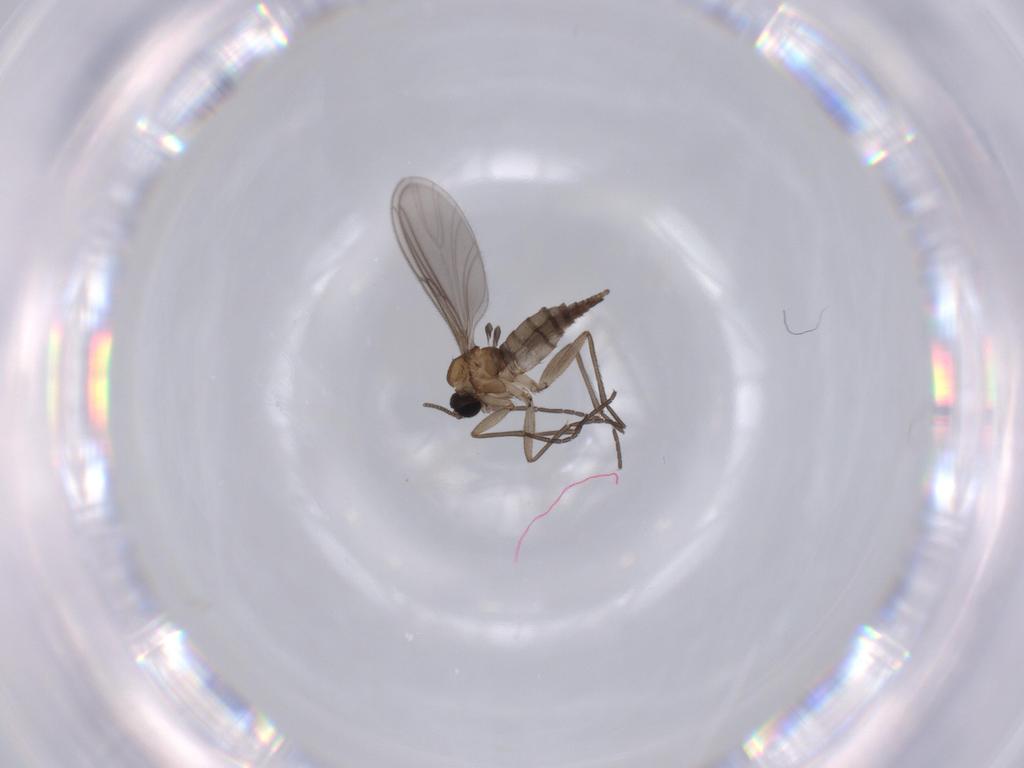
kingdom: Animalia
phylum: Arthropoda
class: Insecta
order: Diptera
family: Sciaridae
